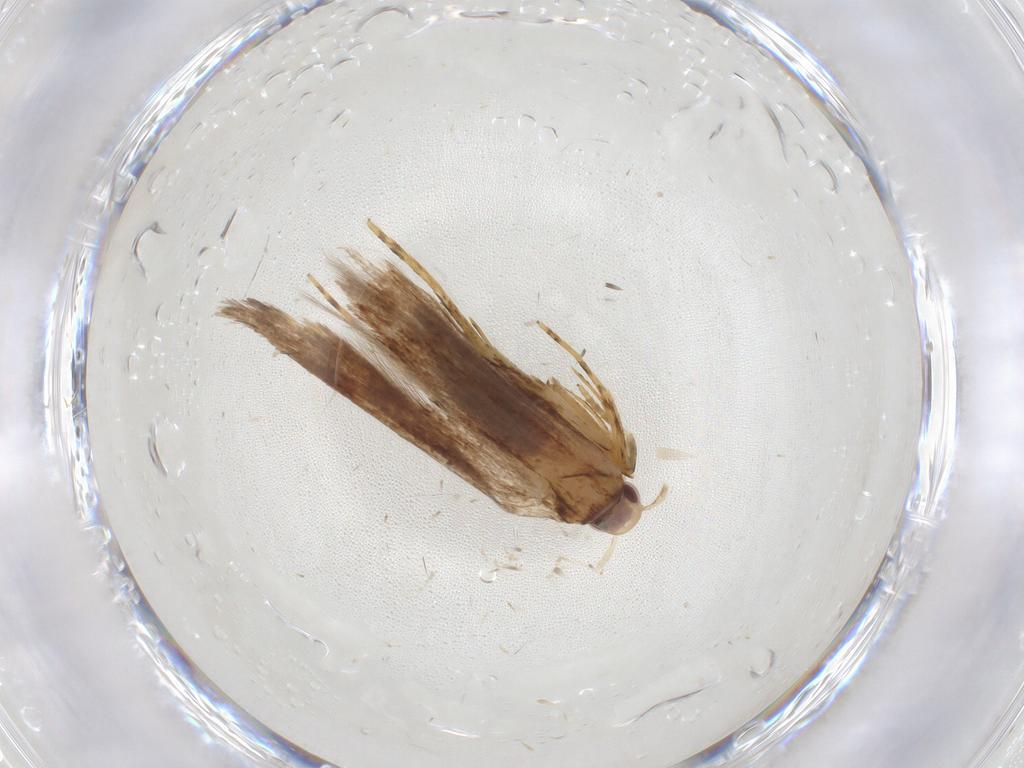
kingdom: Animalia
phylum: Arthropoda
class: Insecta
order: Lepidoptera
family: Cosmopterigidae
